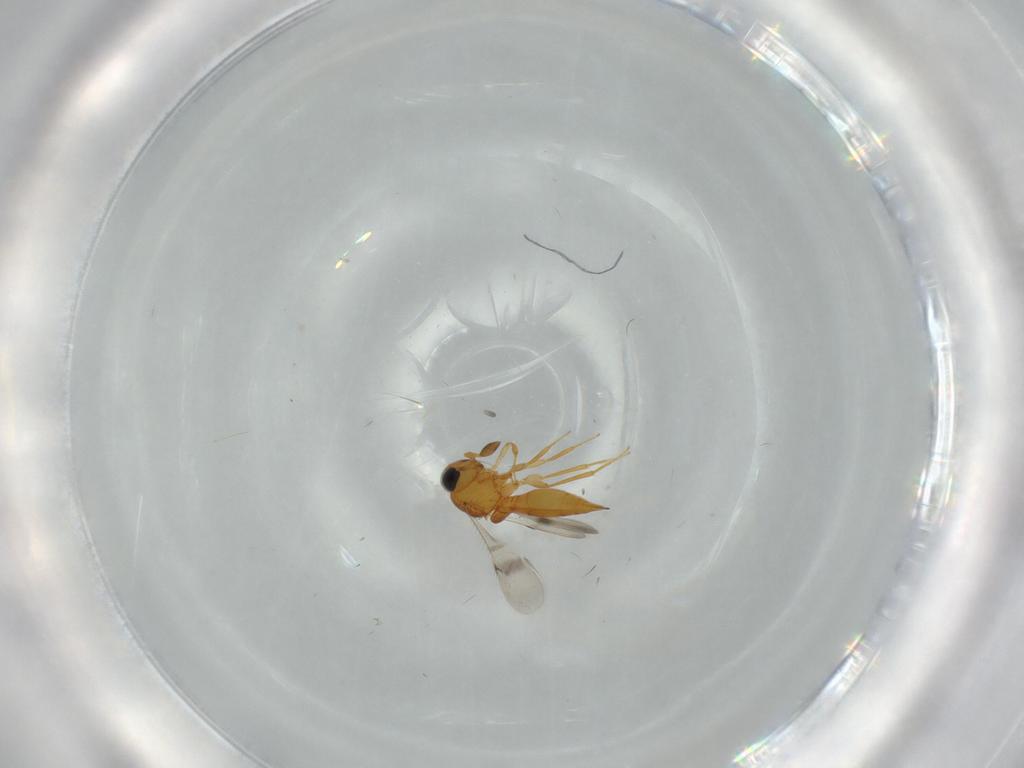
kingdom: Animalia
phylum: Arthropoda
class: Insecta
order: Hymenoptera
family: Scelionidae
